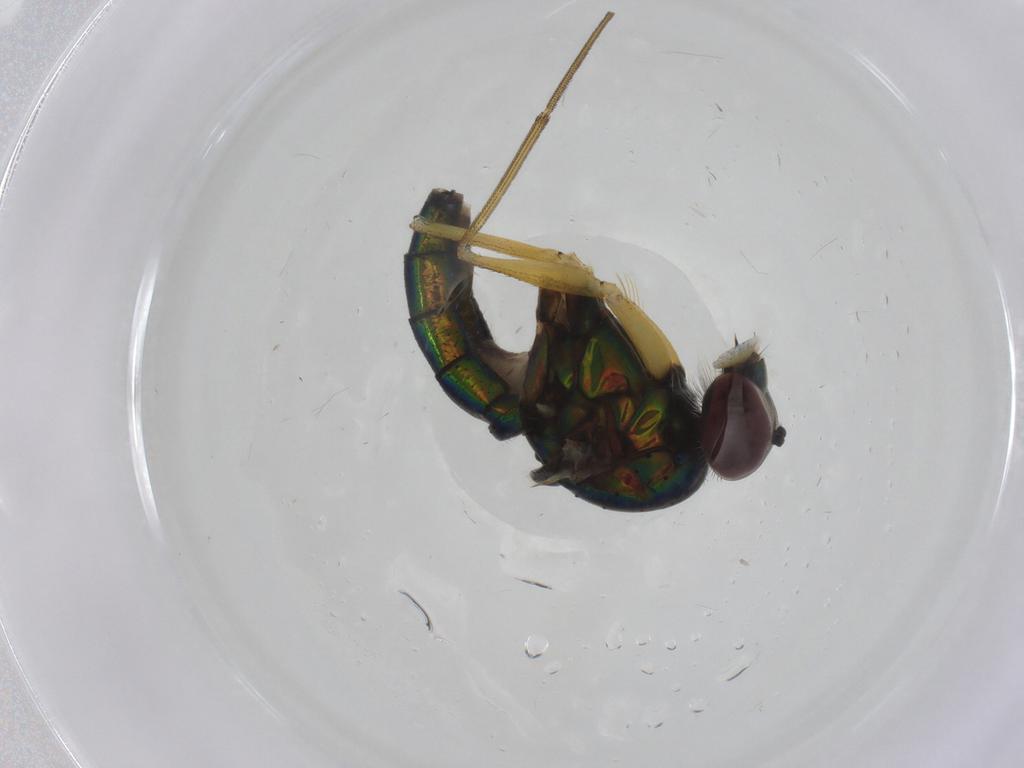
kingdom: Animalia
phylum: Arthropoda
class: Insecta
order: Diptera
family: Dolichopodidae
